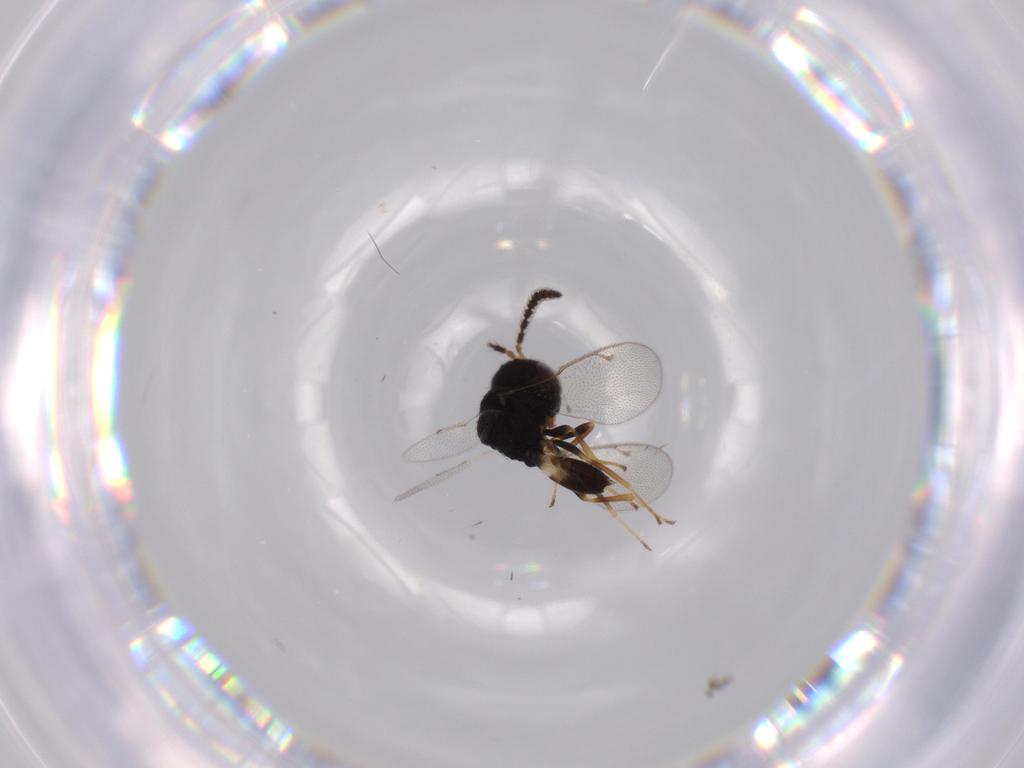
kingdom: Animalia
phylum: Arthropoda
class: Insecta
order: Hymenoptera
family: Pteromalidae
